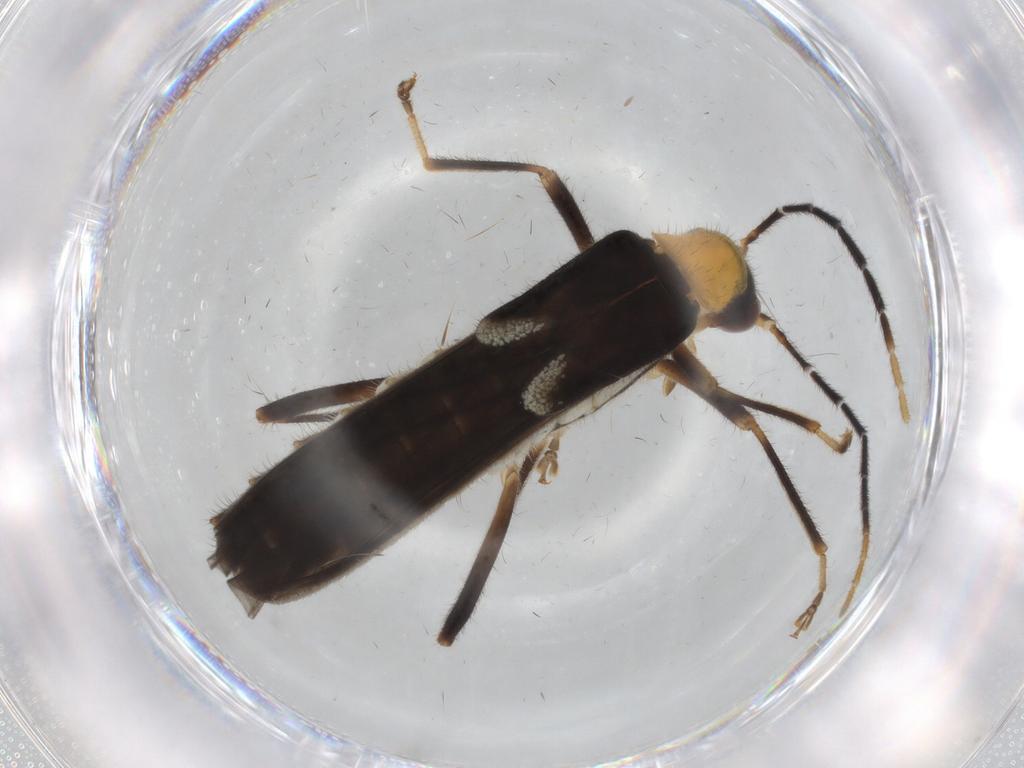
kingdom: Animalia
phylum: Arthropoda
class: Insecta
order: Coleoptera
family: Cantharidae
